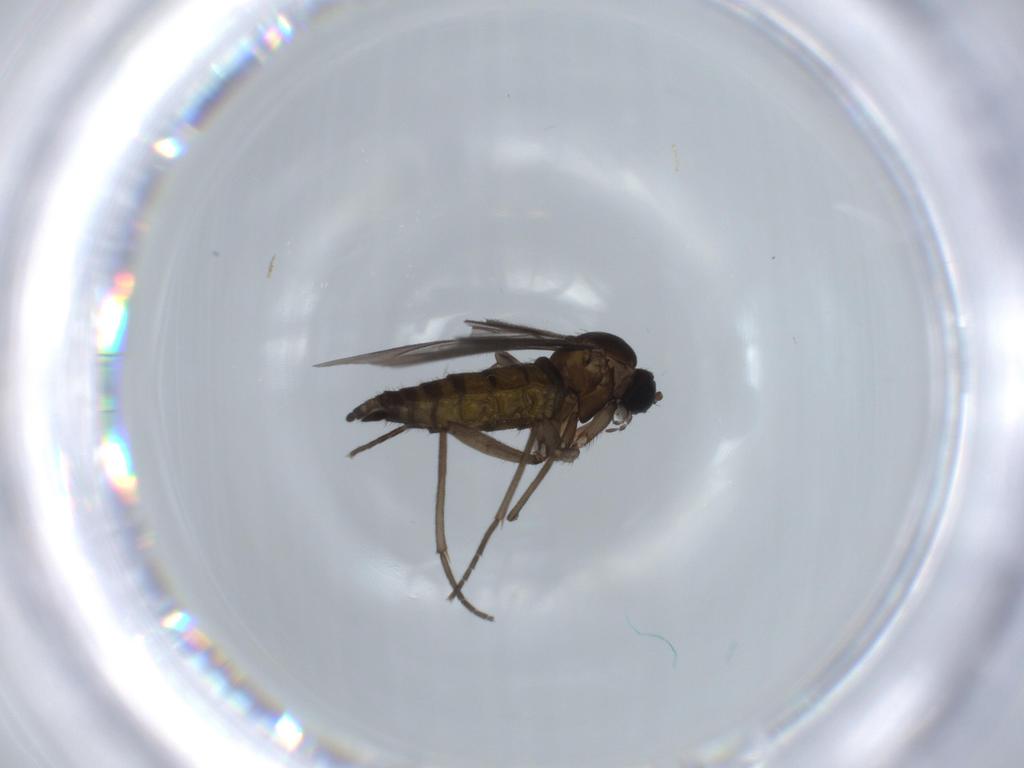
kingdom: Animalia
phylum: Arthropoda
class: Insecta
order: Diptera
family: Sciaridae
